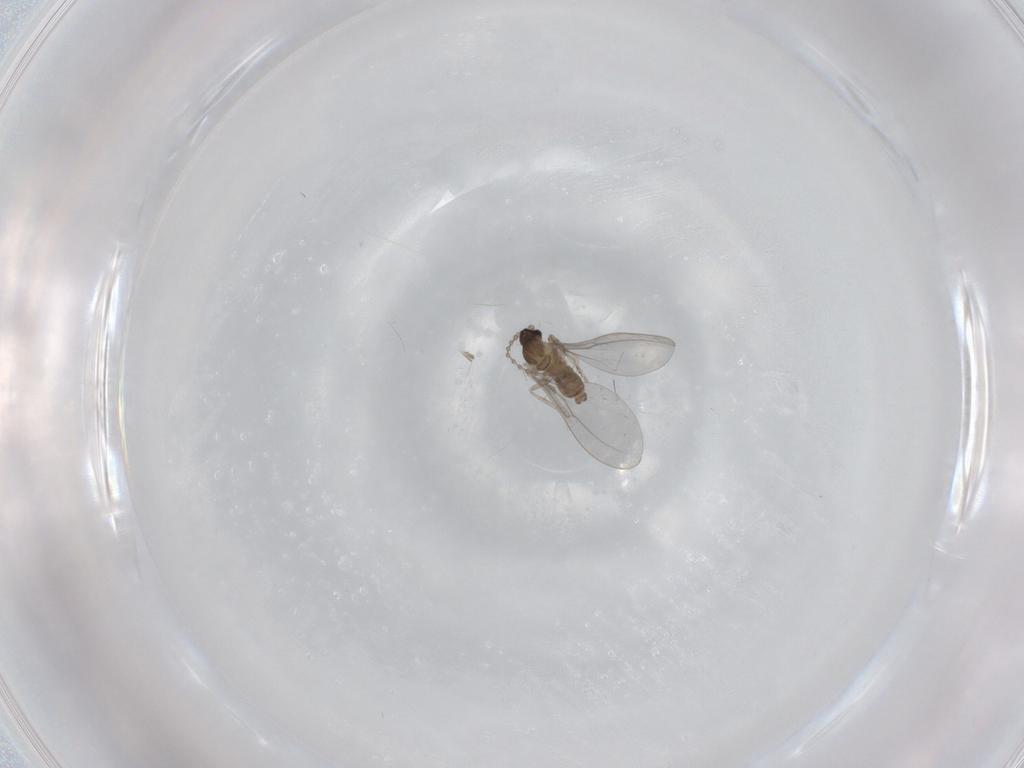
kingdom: Animalia
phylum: Arthropoda
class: Insecta
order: Diptera
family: Cecidomyiidae
